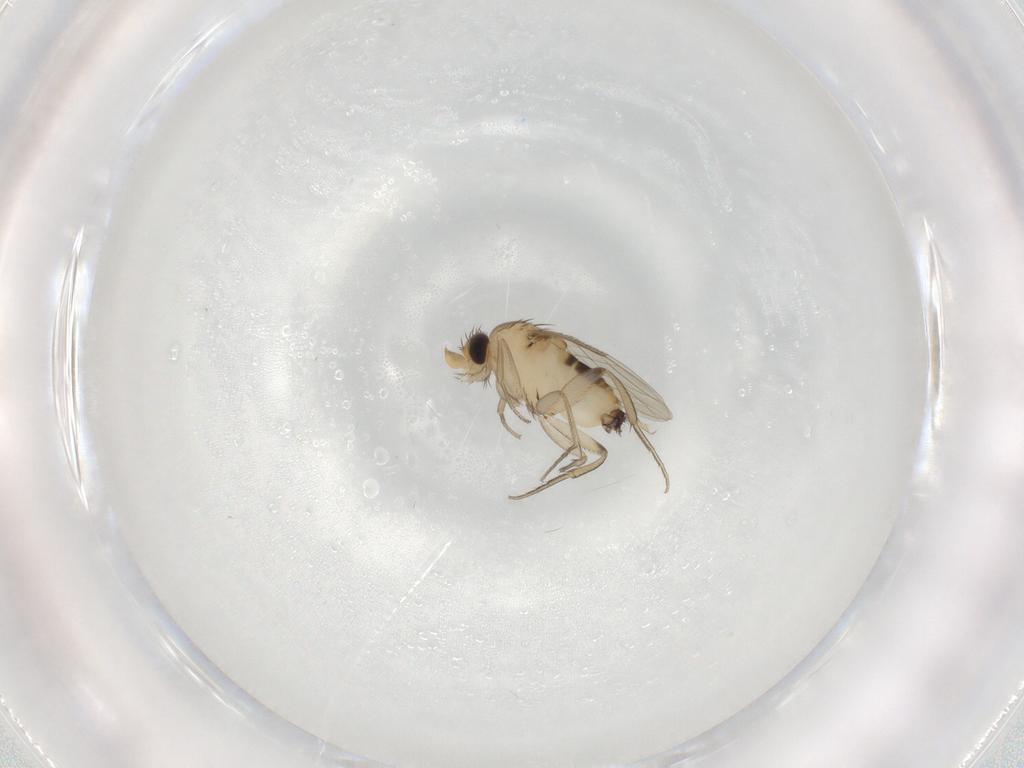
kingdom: Animalia
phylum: Arthropoda
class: Insecta
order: Diptera
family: Phoridae
